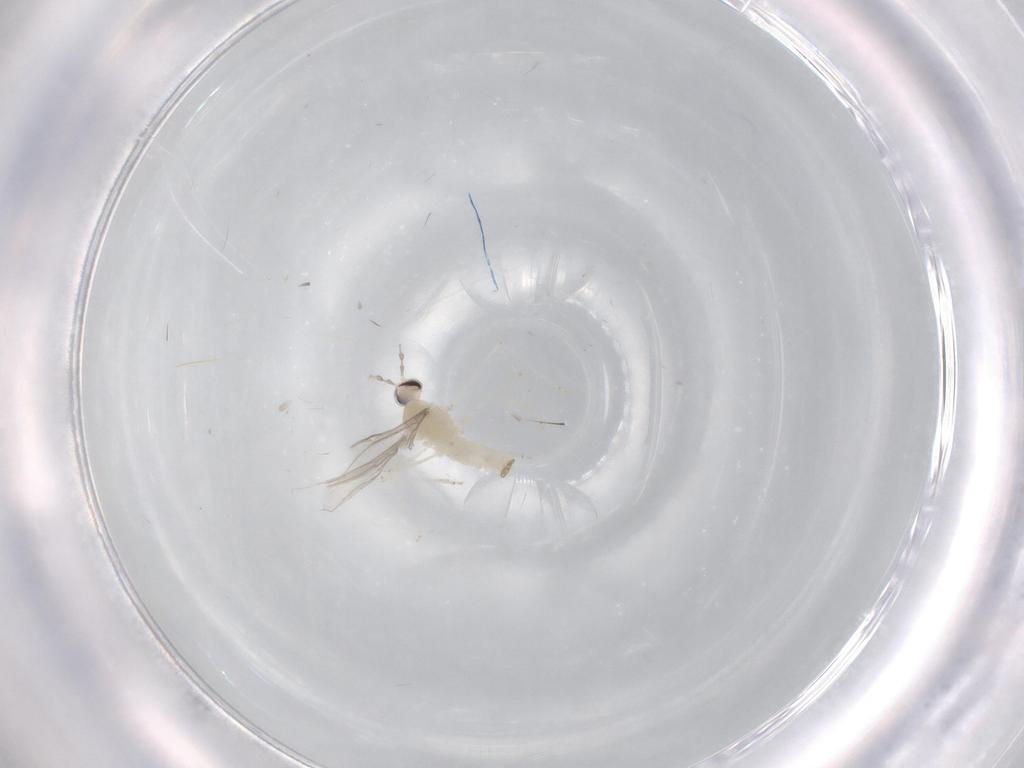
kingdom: Animalia
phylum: Arthropoda
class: Insecta
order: Diptera
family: Cecidomyiidae
